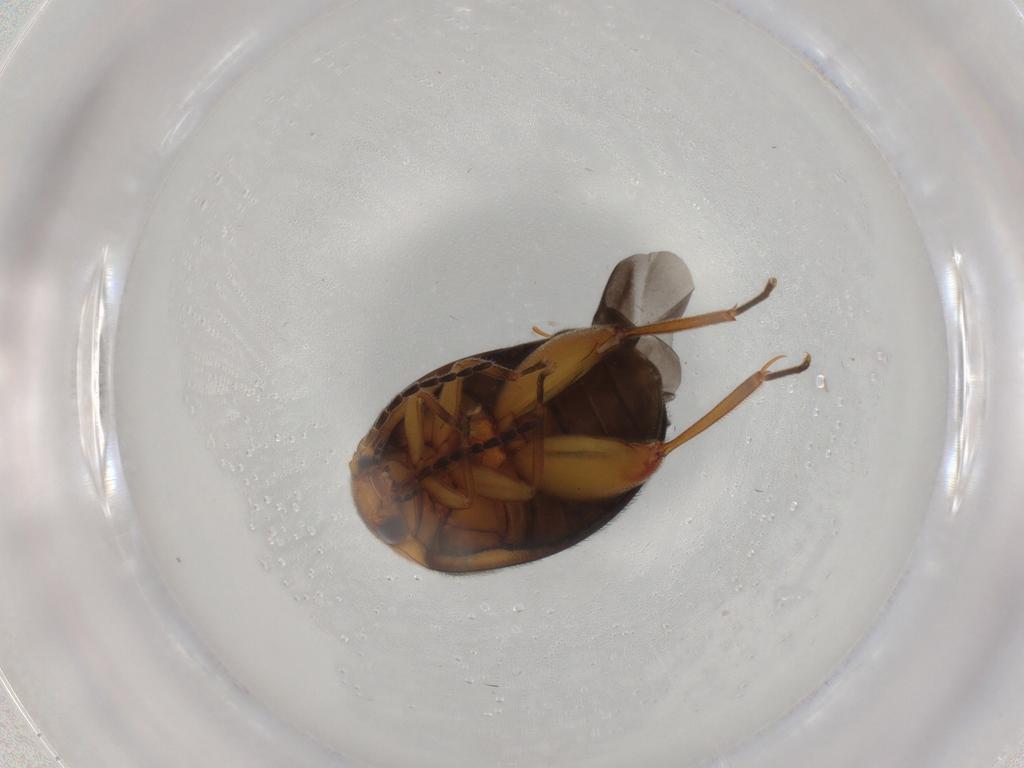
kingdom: Animalia
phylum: Arthropoda
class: Insecta
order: Coleoptera
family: Scirtidae
